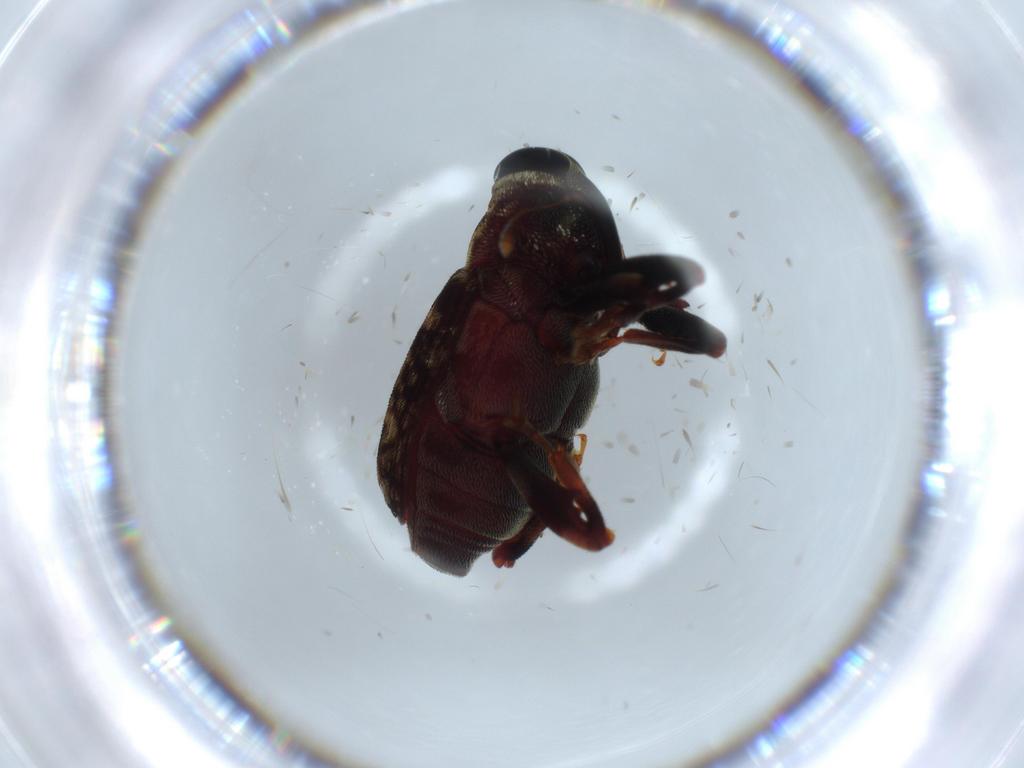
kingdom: Animalia
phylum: Arthropoda
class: Insecta
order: Coleoptera
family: Curculionidae
